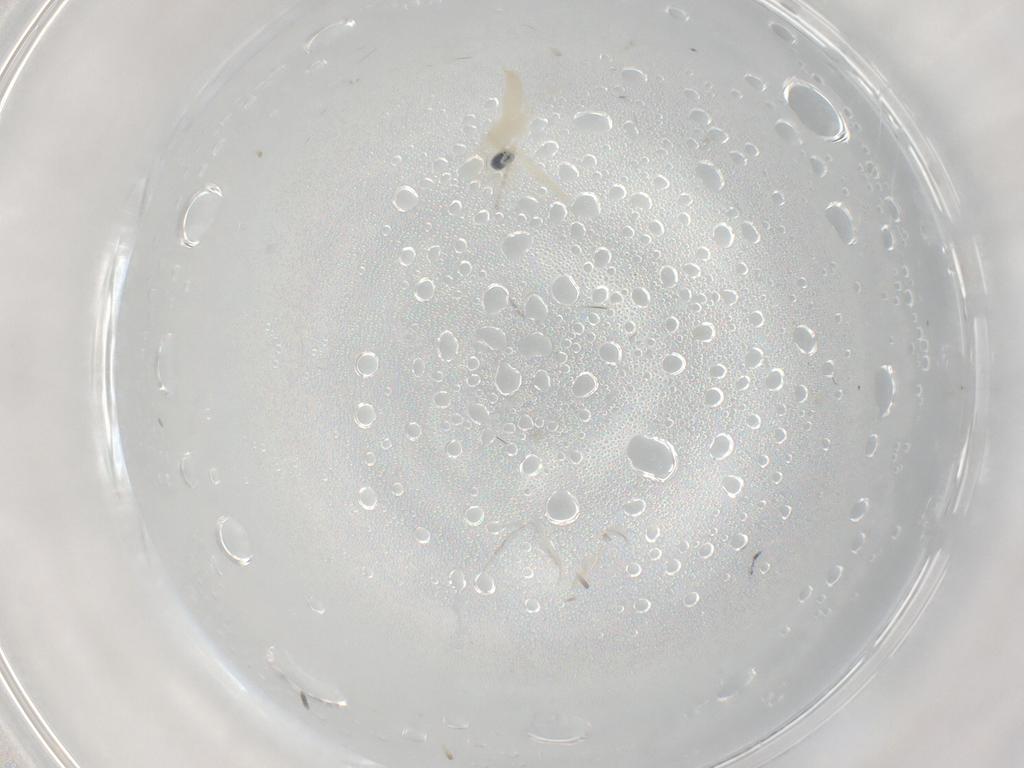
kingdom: Animalia
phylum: Arthropoda
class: Insecta
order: Diptera
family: Cecidomyiidae
